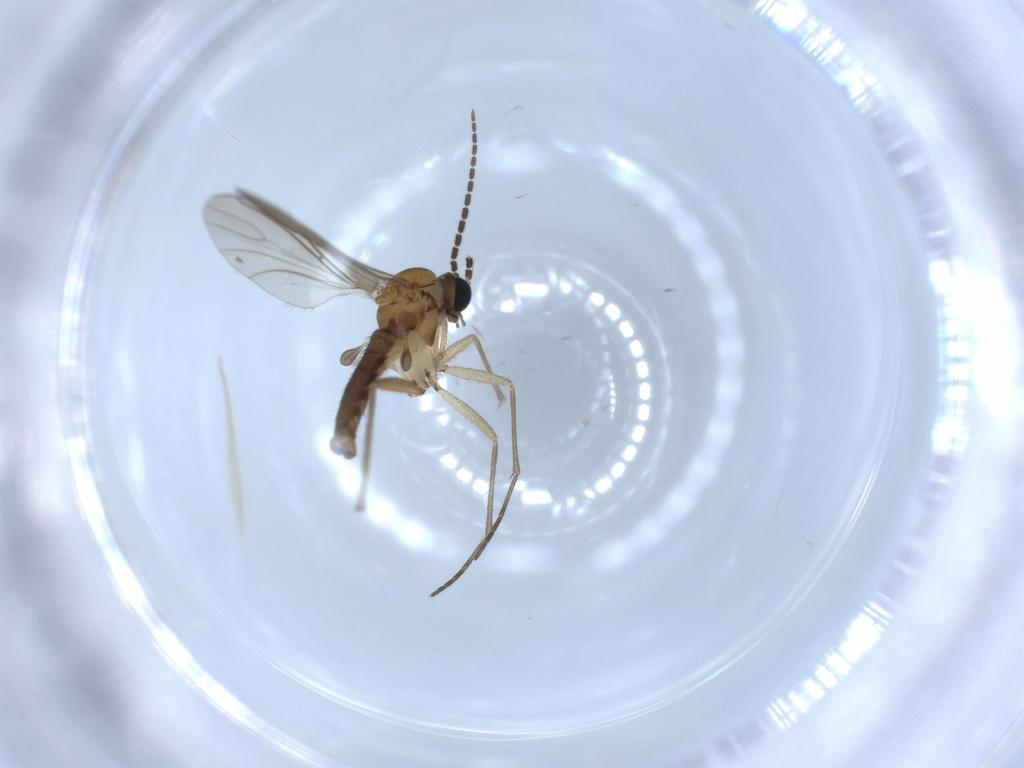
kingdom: Animalia
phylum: Arthropoda
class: Insecta
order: Diptera
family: Sciaridae
